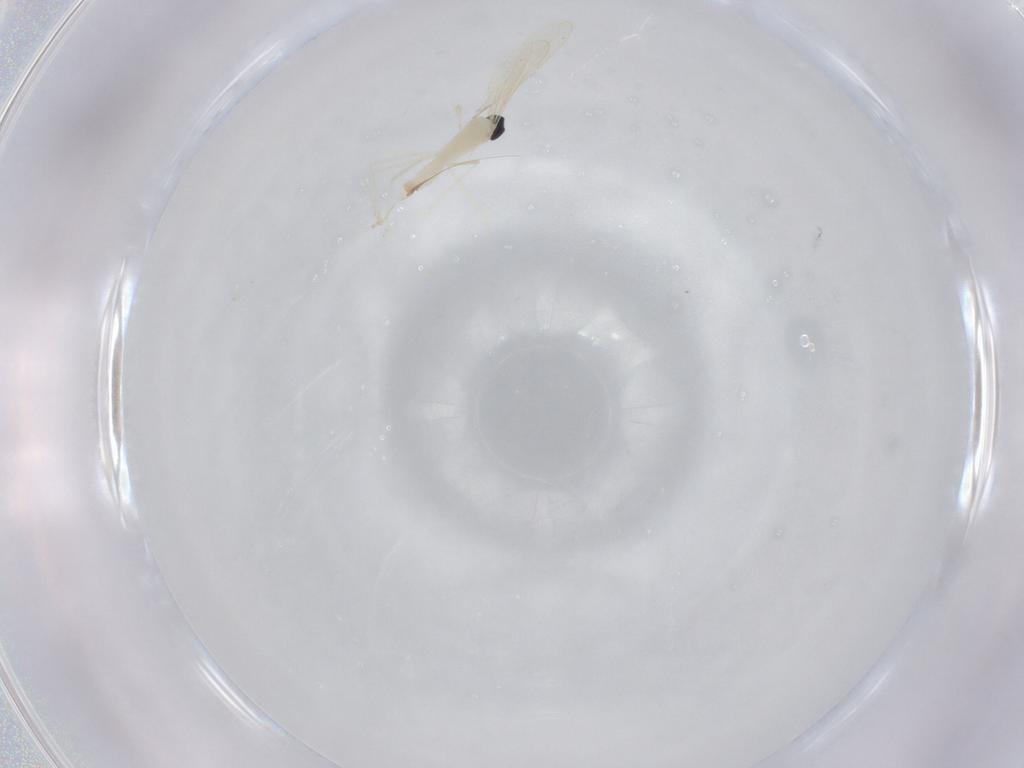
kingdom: Animalia
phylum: Arthropoda
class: Insecta
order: Diptera
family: Cecidomyiidae
